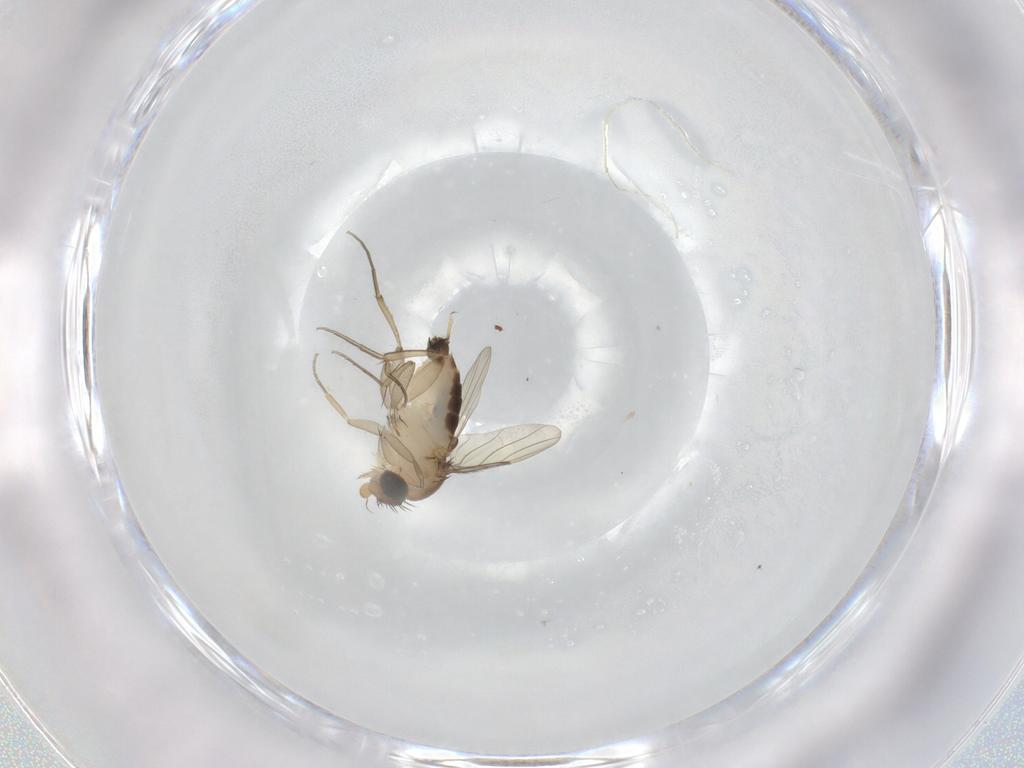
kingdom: Animalia
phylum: Arthropoda
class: Insecta
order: Diptera
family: Phoridae
